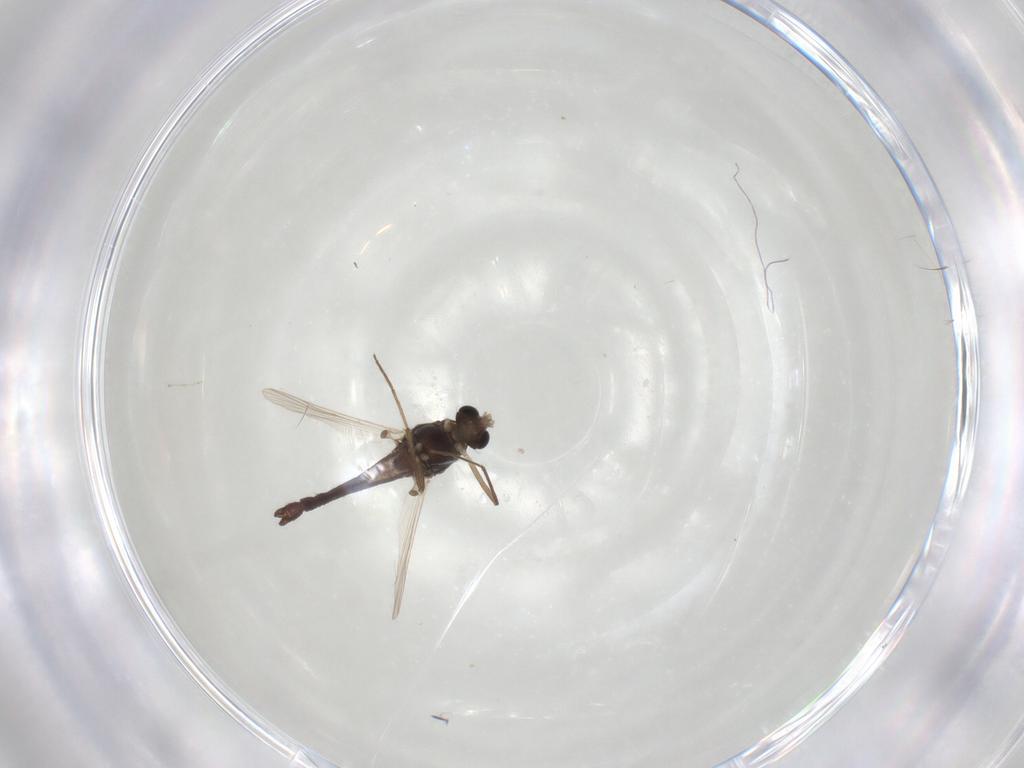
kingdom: Animalia
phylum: Arthropoda
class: Insecta
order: Diptera
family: Chironomidae
